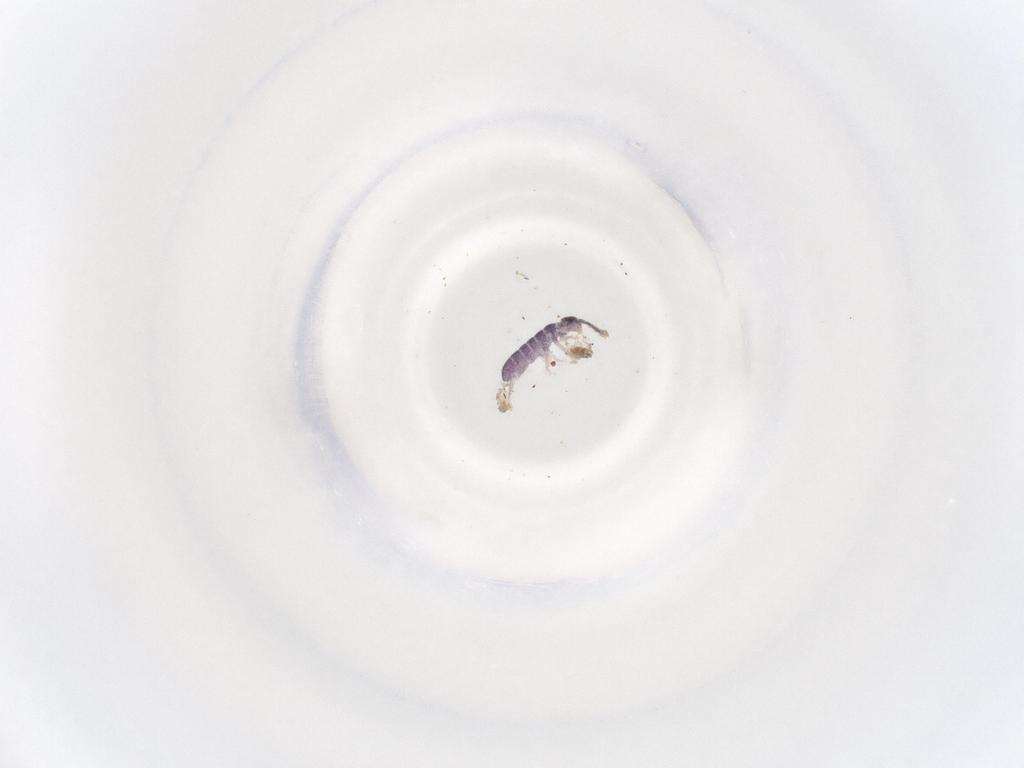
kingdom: Animalia
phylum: Arthropoda
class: Collembola
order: Entomobryomorpha
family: Isotomidae
